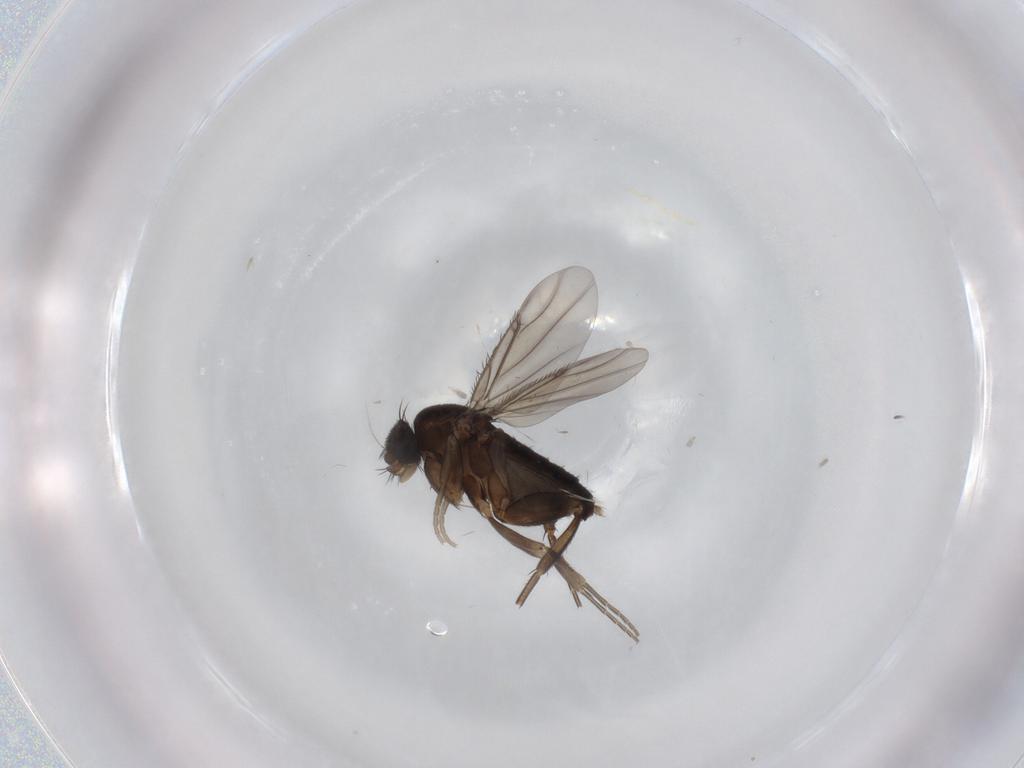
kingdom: Animalia
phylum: Arthropoda
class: Insecta
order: Diptera
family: Phoridae
